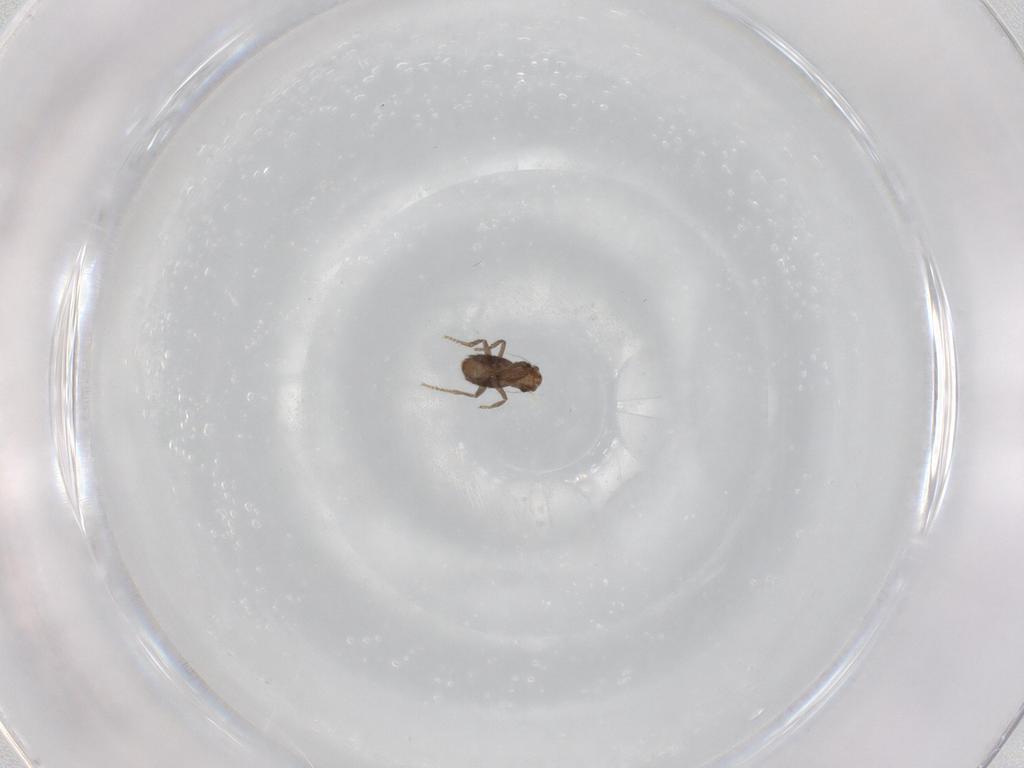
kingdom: Animalia
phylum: Arthropoda
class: Insecta
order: Diptera
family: Phoridae
